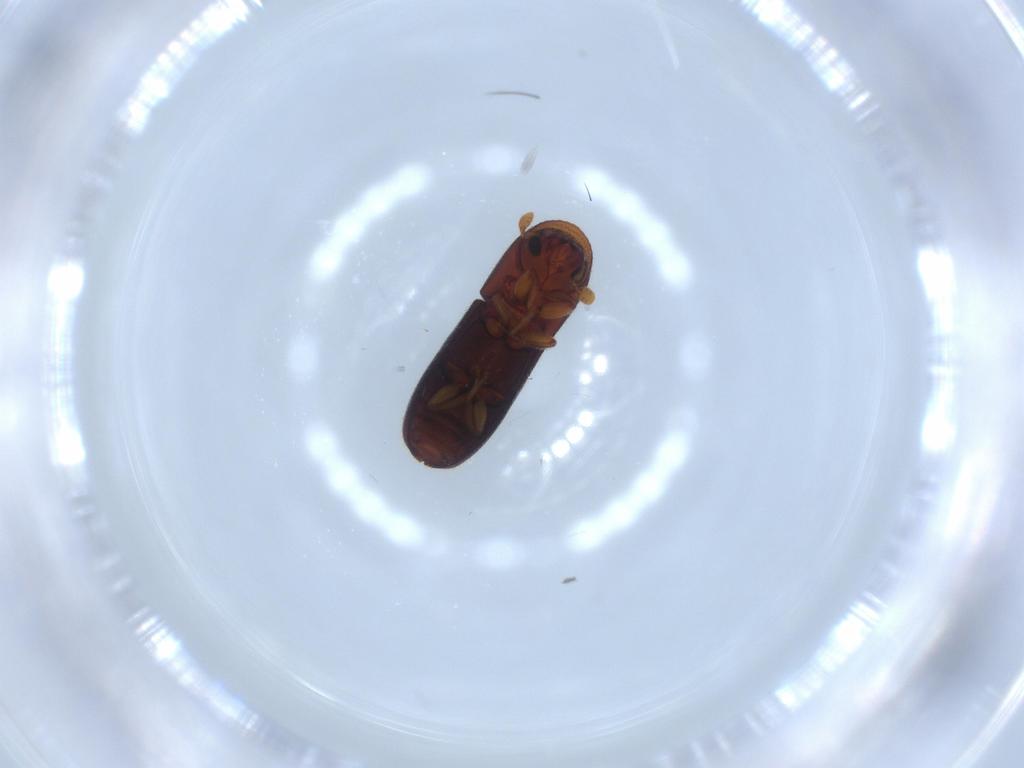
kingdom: Animalia
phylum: Arthropoda
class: Insecta
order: Coleoptera
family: Curculionidae
